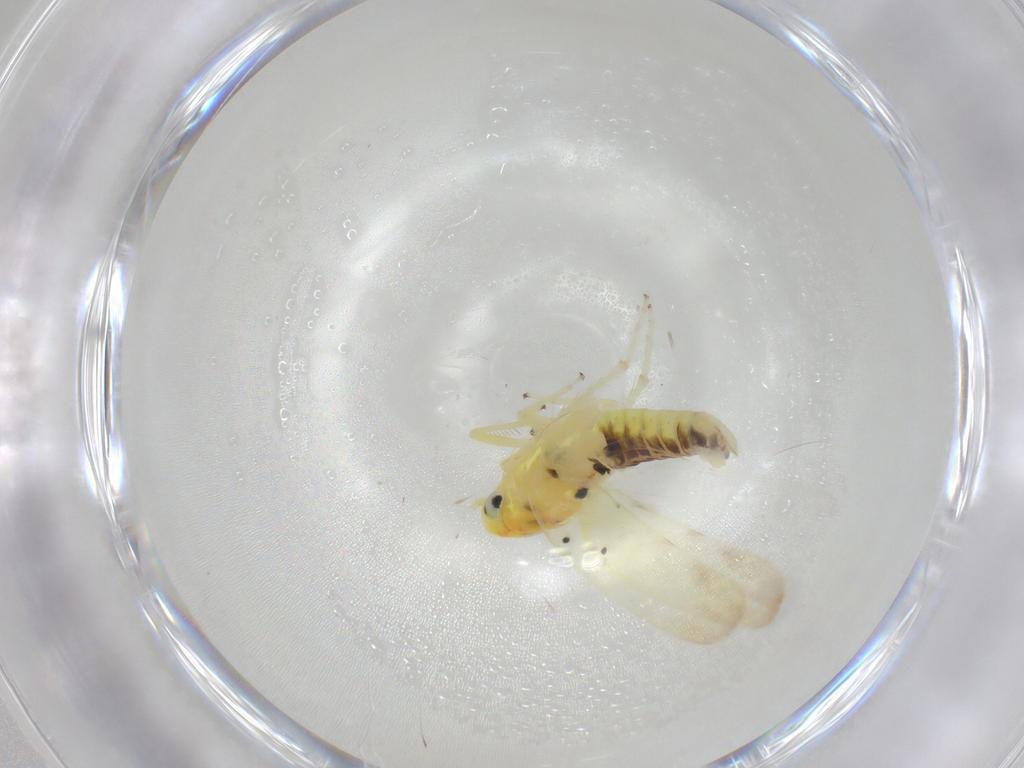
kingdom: Animalia
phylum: Arthropoda
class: Insecta
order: Hemiptera
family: Cicadellidae
